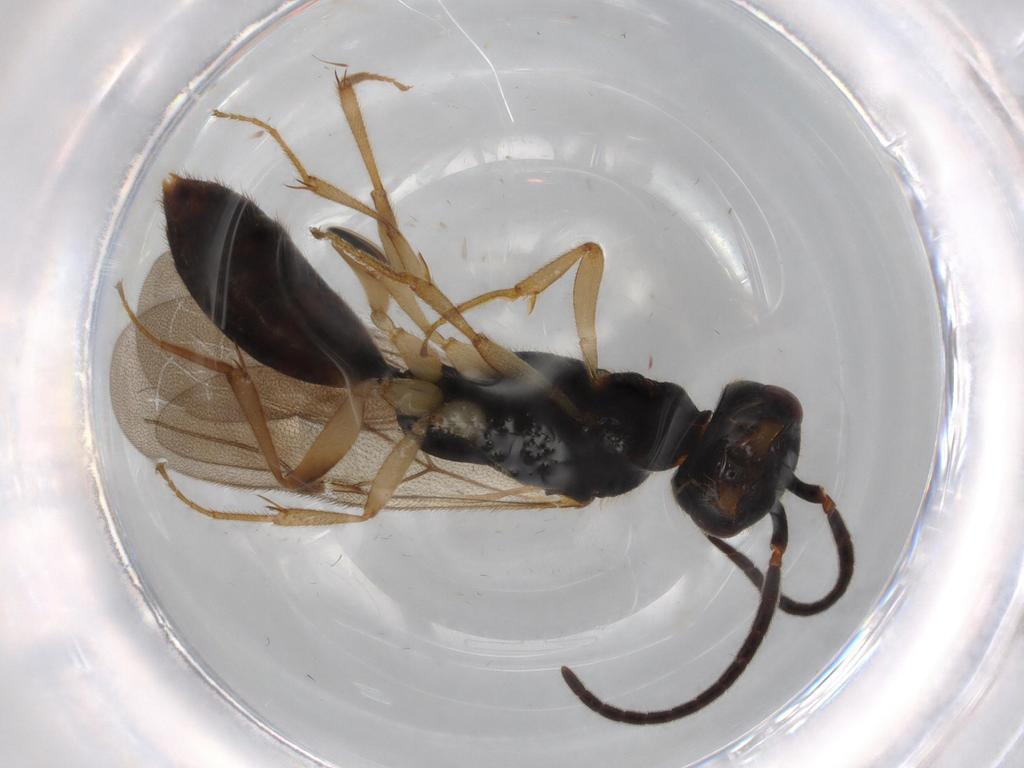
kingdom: Animalia
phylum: Arthropoda
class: Insecta
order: Hymenoptera
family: Bethylidae
